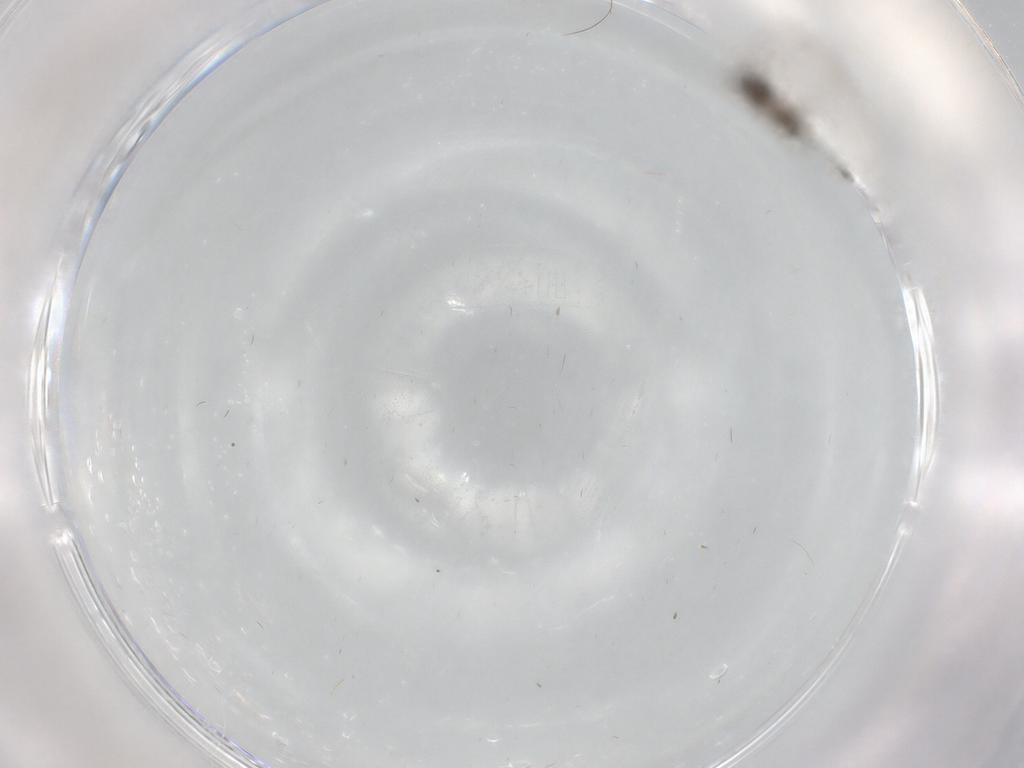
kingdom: Animalia
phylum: Arthropoda
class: Insecta
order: Diptera
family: Cecidomyiidae
